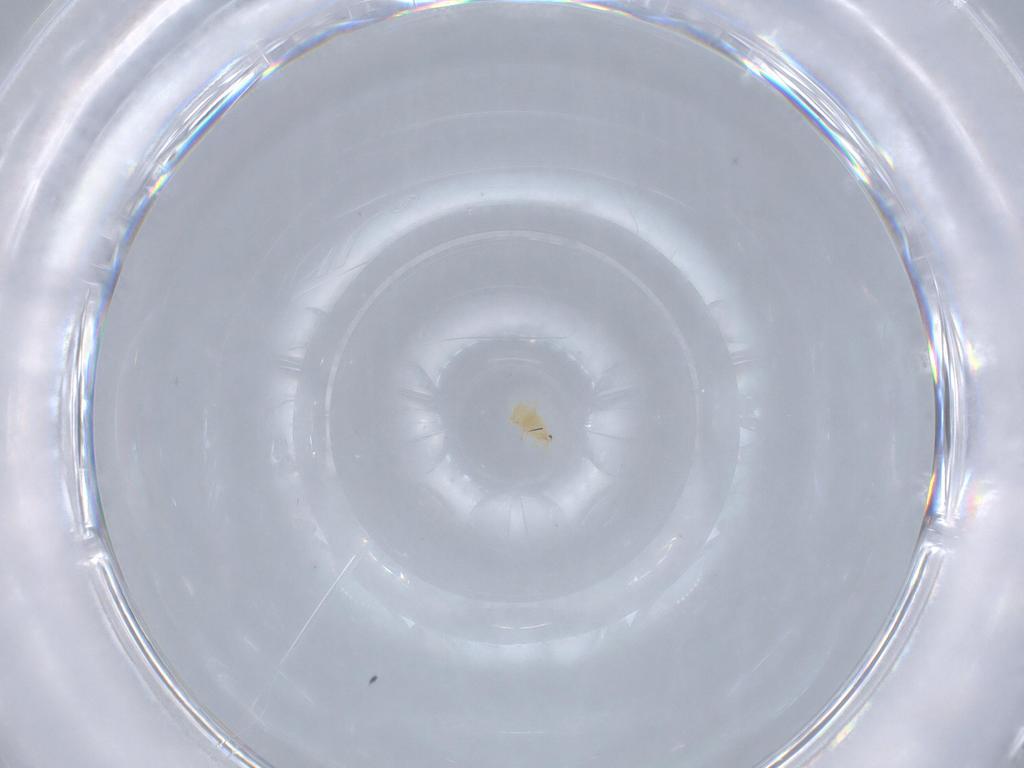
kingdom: Animalia
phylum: Arthropoda
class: Arachnida
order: Mesostigmata
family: Phytoseiidae
